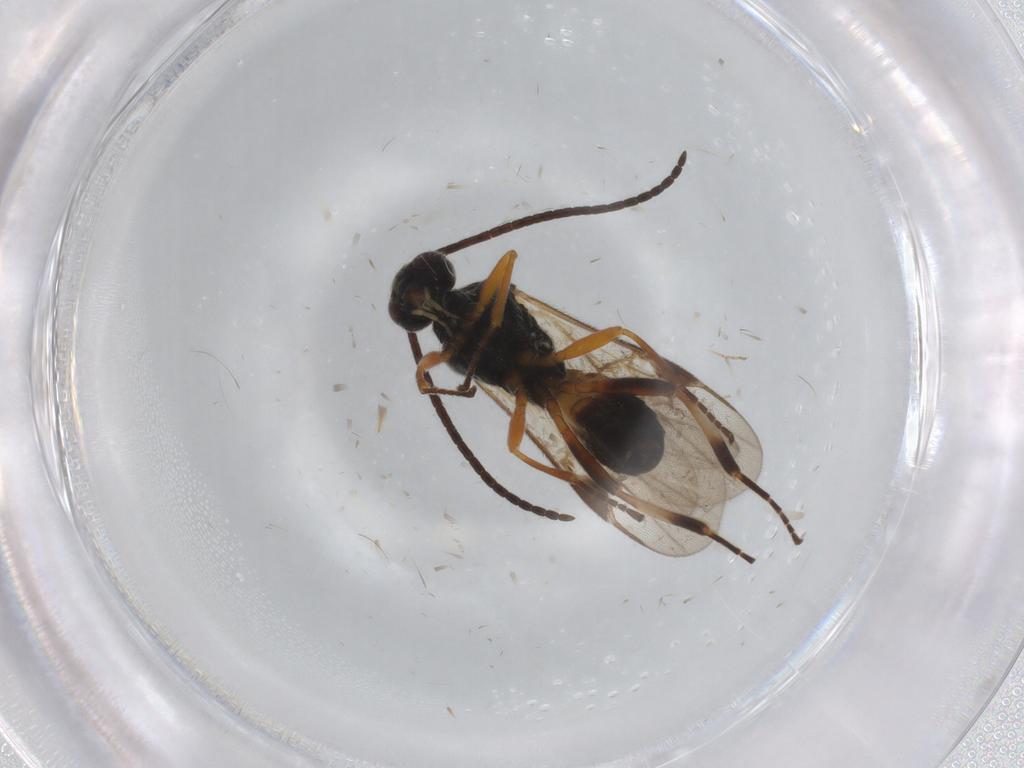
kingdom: Animalia
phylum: Arthropoda
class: Insecta
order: Hymenoptera
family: Braconidae
